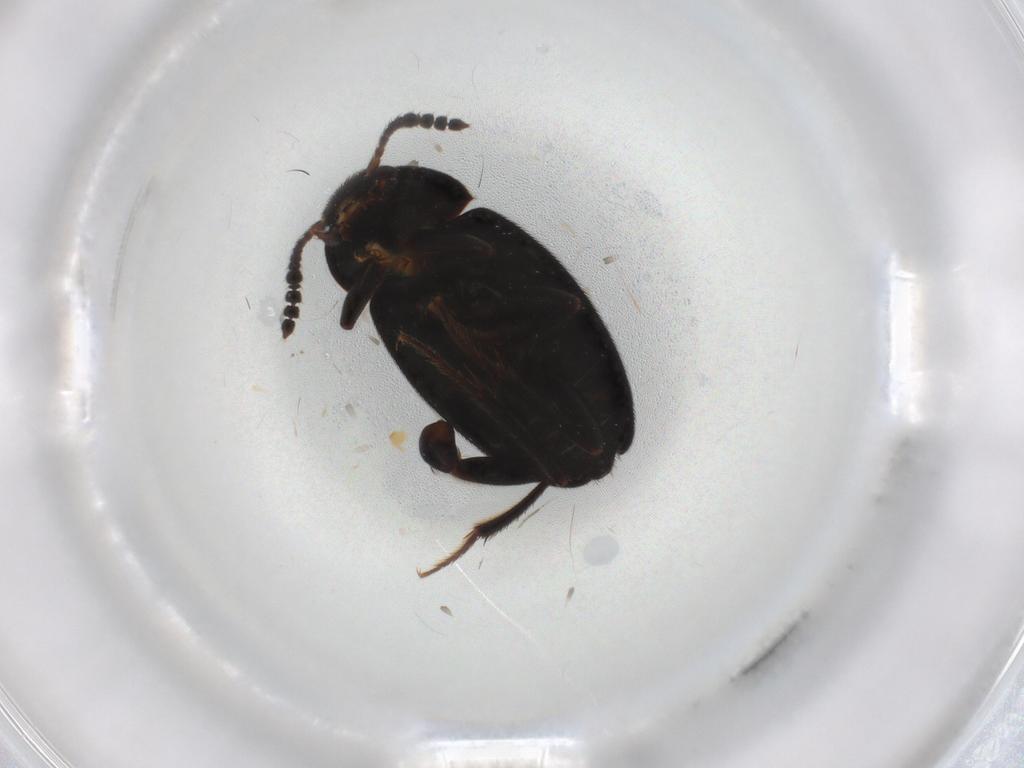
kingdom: Animalia
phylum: Arthropoda
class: Insecta
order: Coleoptera
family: Leiodidae
